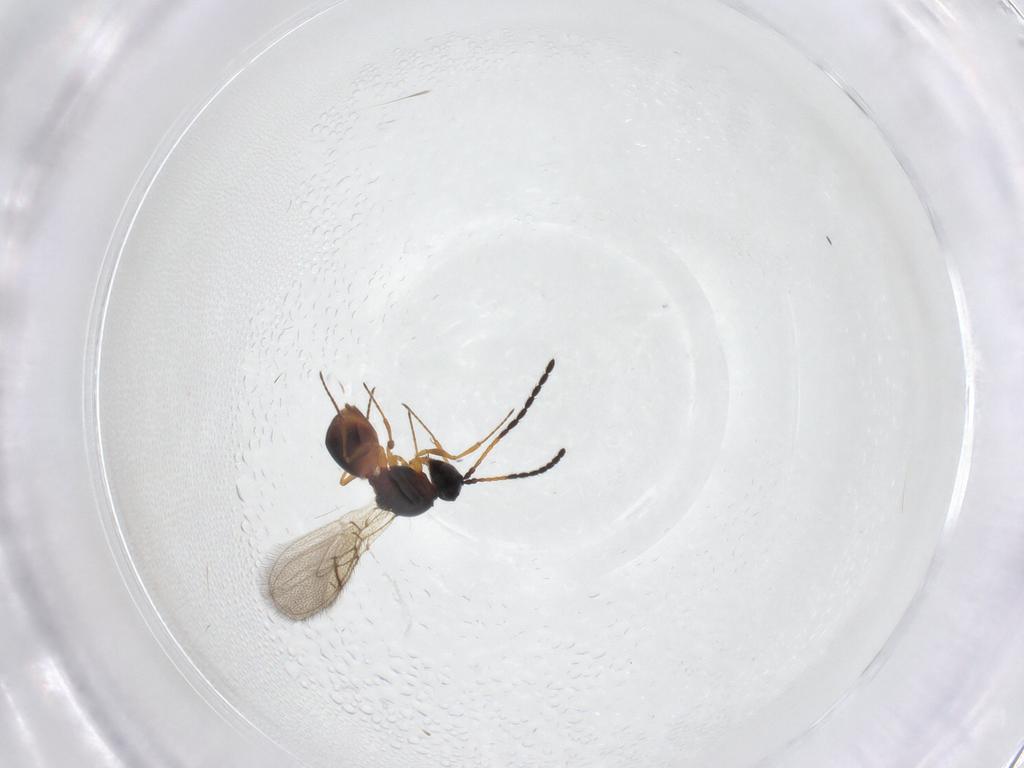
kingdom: Animalia
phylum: Arthropoda
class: Insecta
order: Hymenoptera
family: Figitidae
